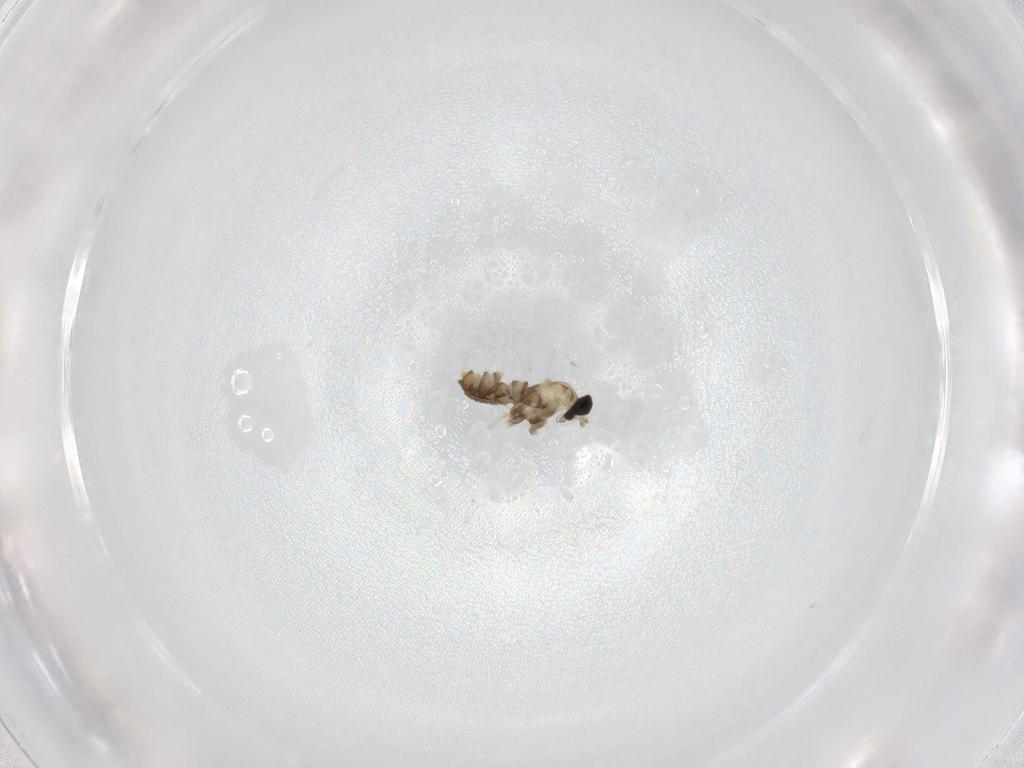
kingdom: Animalia
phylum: Arthropoda
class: Insecta
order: Diptera
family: Cecidomyiidae
